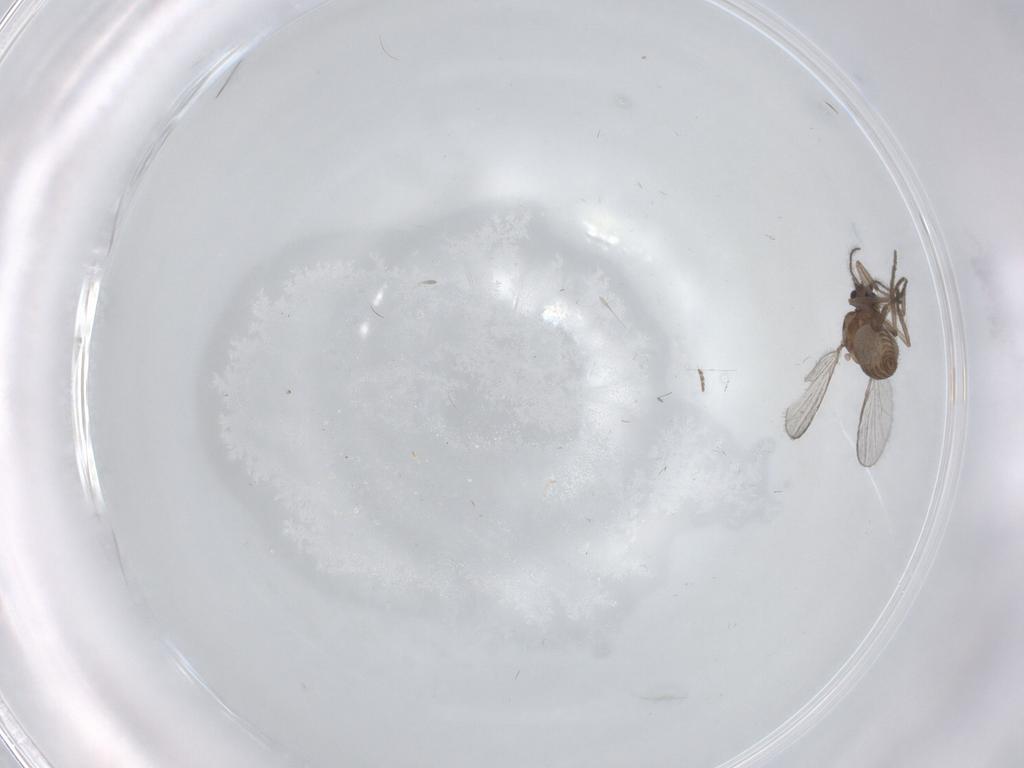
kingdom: Animalia
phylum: Arthropoda
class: Insecta
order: Diptera
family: Ceratopogonidae
